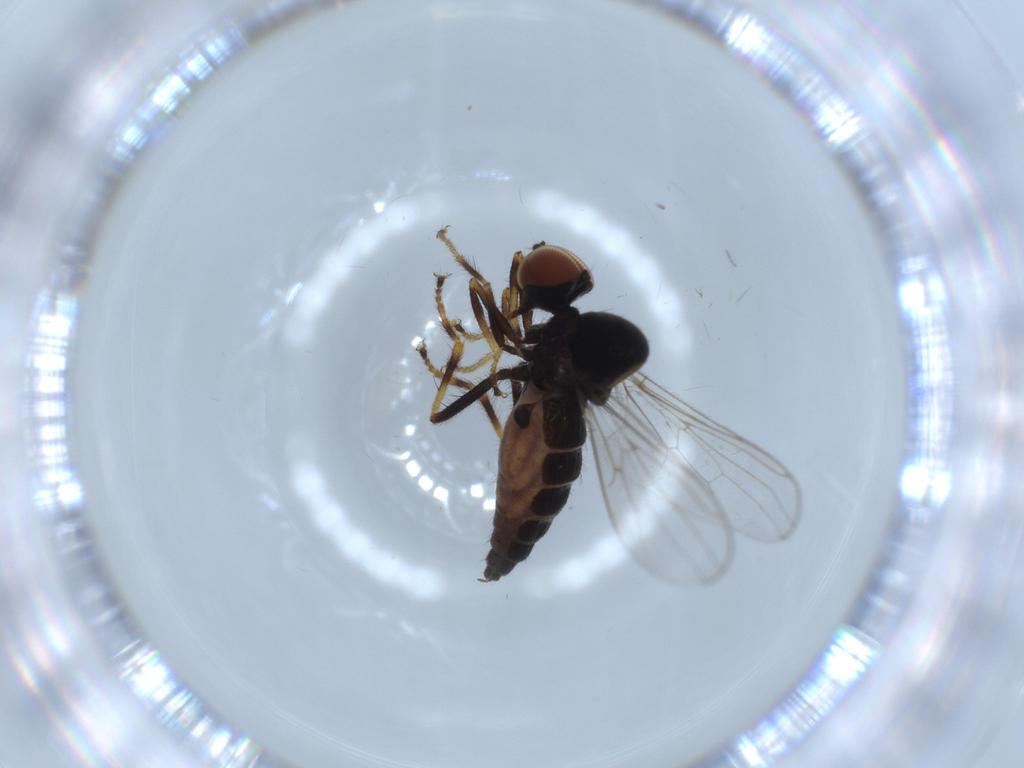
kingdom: Animalia
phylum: Arthropoda
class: Insecta
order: Diptera
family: Hybotidae
